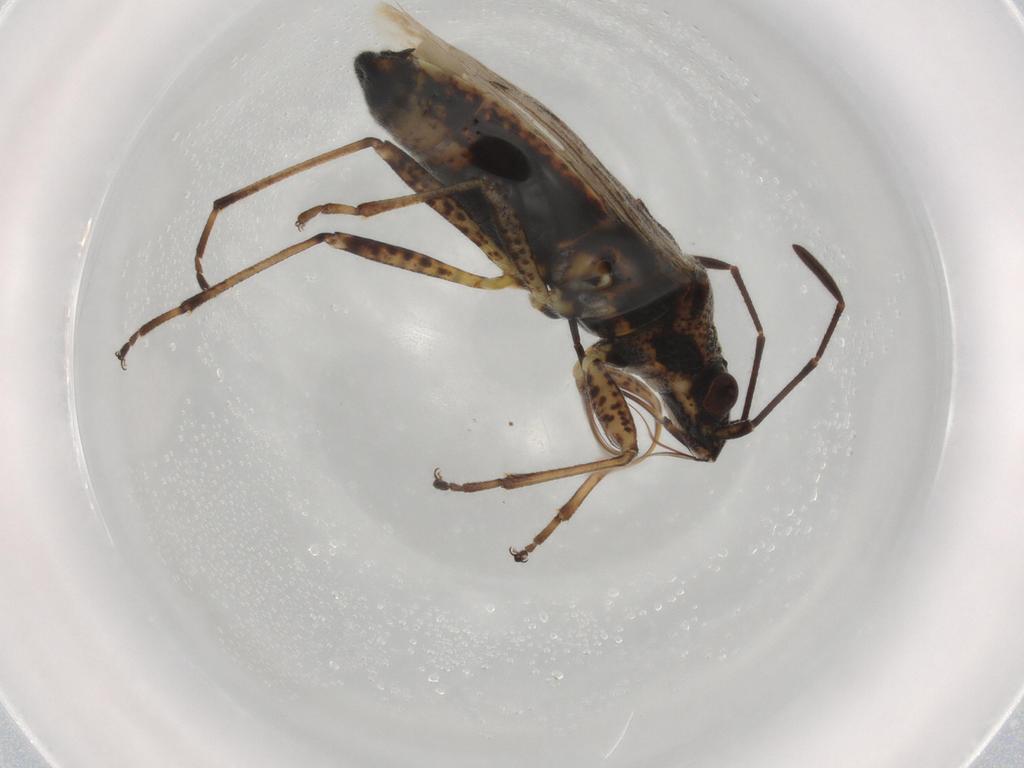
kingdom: Animalia
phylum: Arthropoda
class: Insecta
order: Hemiptera
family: Lygaeidae
